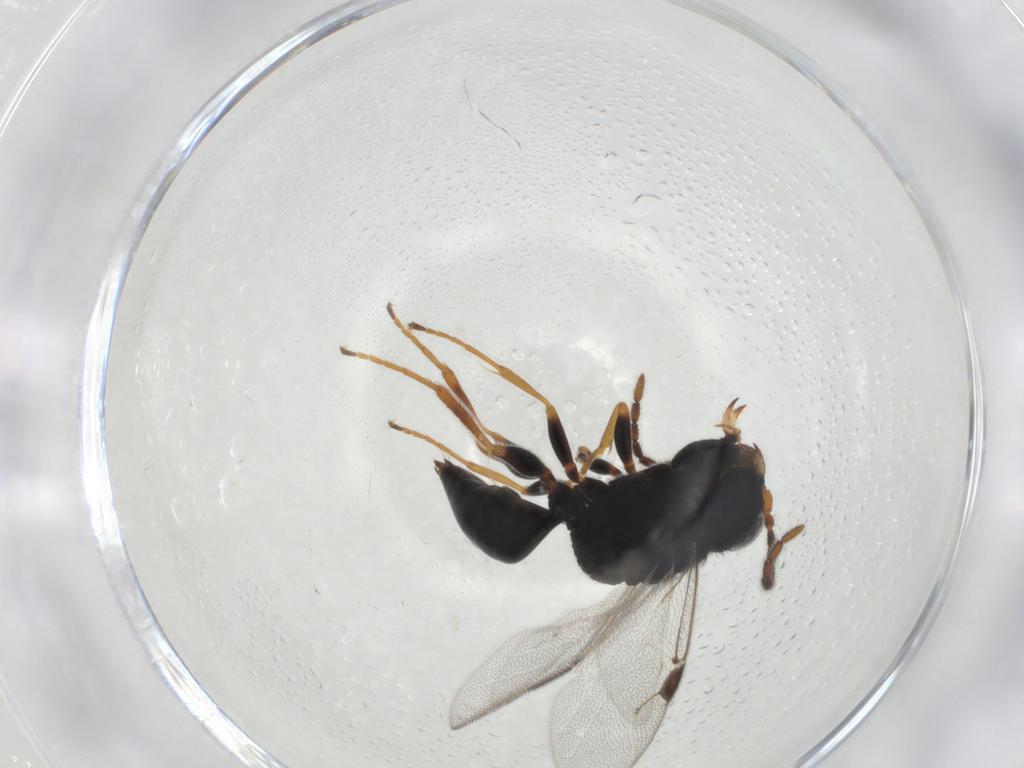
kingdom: Animalia
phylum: Arthropoda
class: Insecta
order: Hymenoptera
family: Dryinidae
